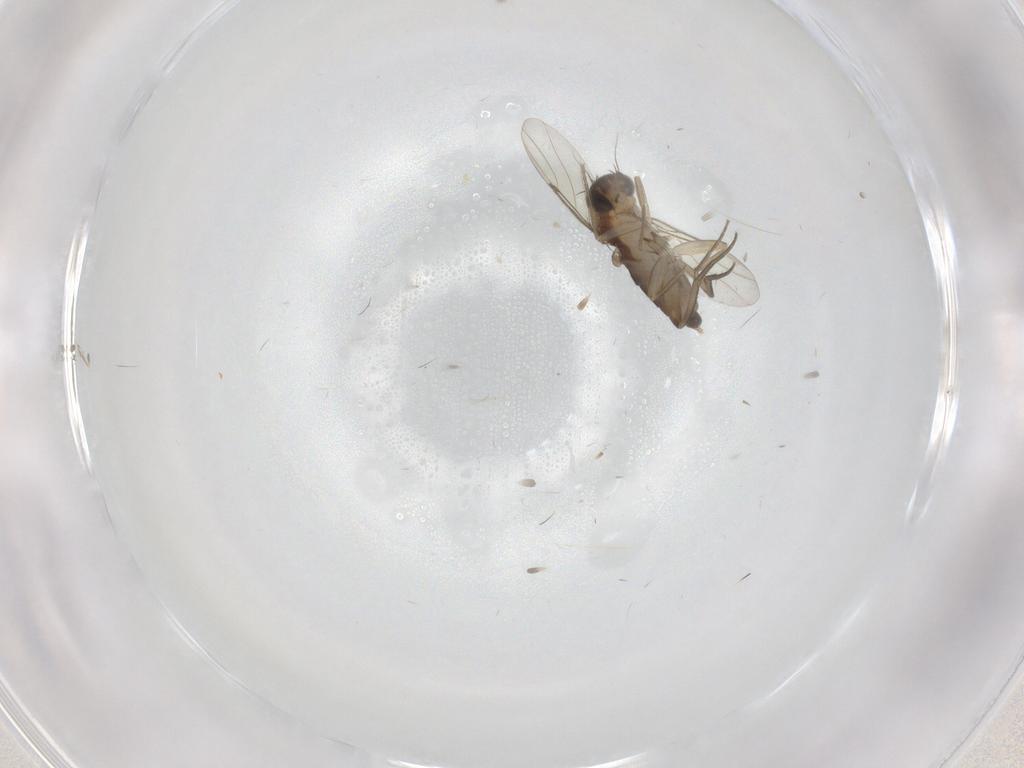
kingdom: Animalia
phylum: Arthropoda
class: Insecta
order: Diptera
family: Phoridae
